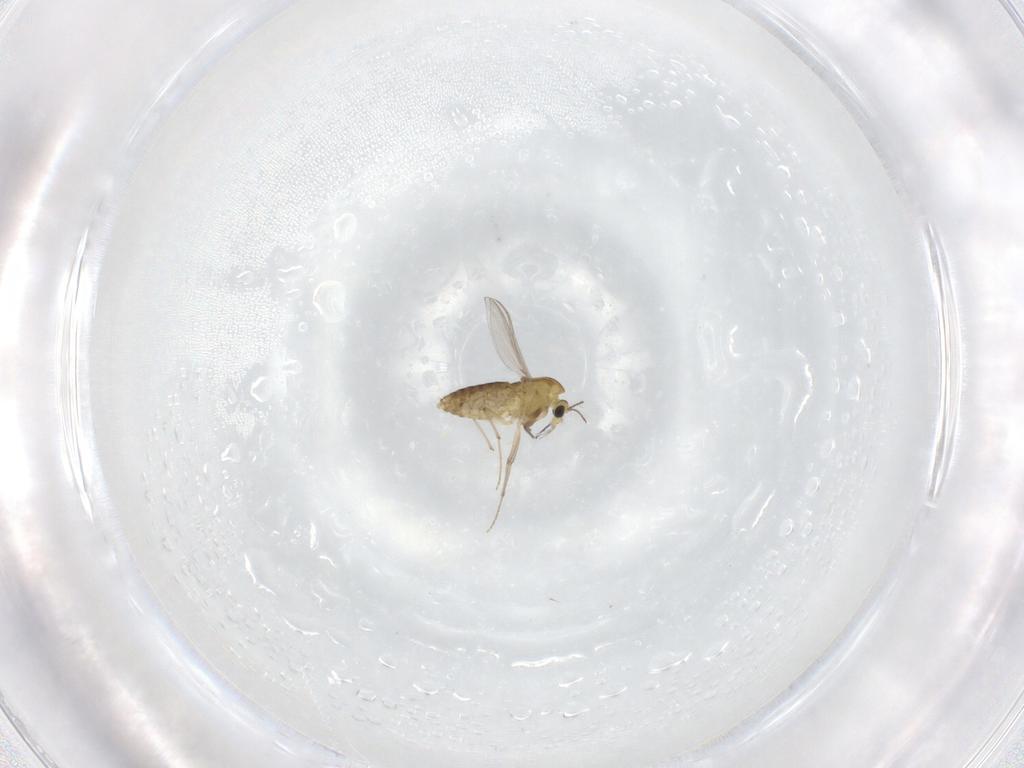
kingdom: Animalia
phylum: Arthropoda
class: Insecta
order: Diptera
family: Chironomidae
